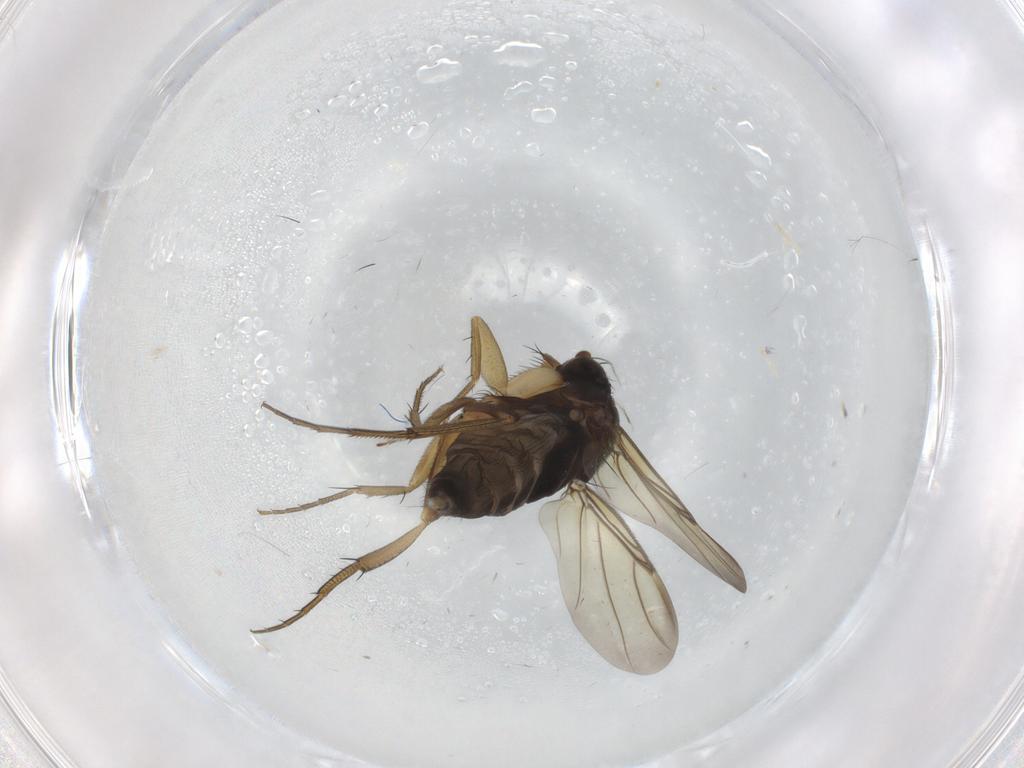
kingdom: Animalia
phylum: Arthropoda
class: Insecta
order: Diptera
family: Phoridae
